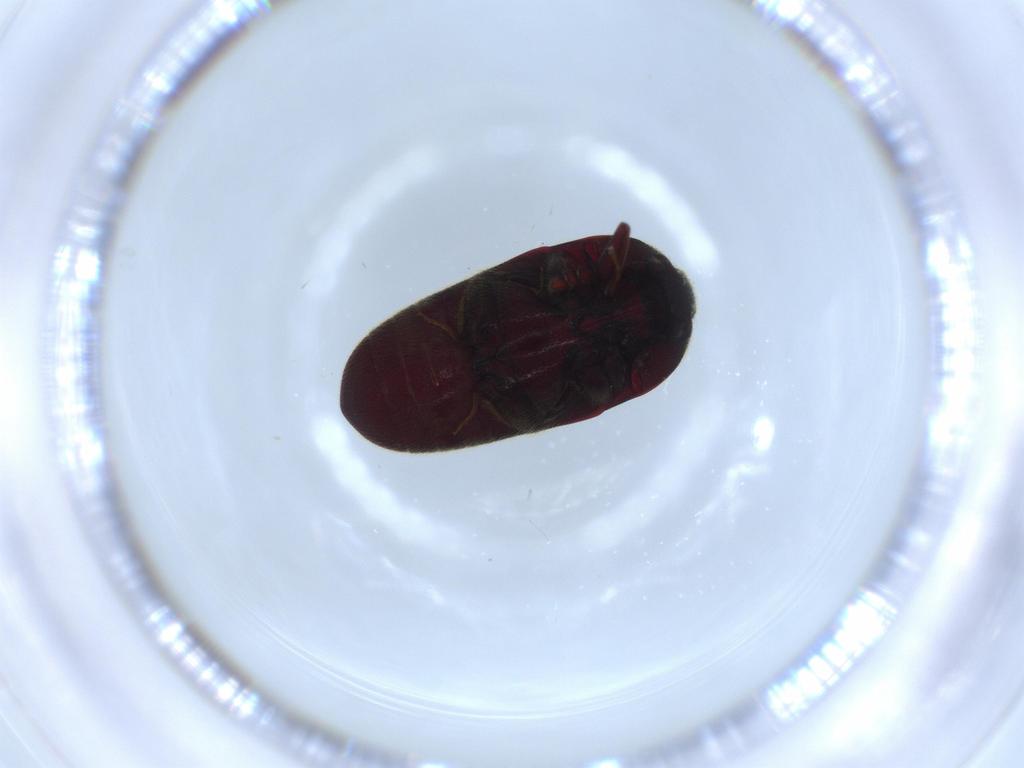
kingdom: Animalia
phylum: Arthropoda
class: Insecta
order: Coleoptera
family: Throscidae
